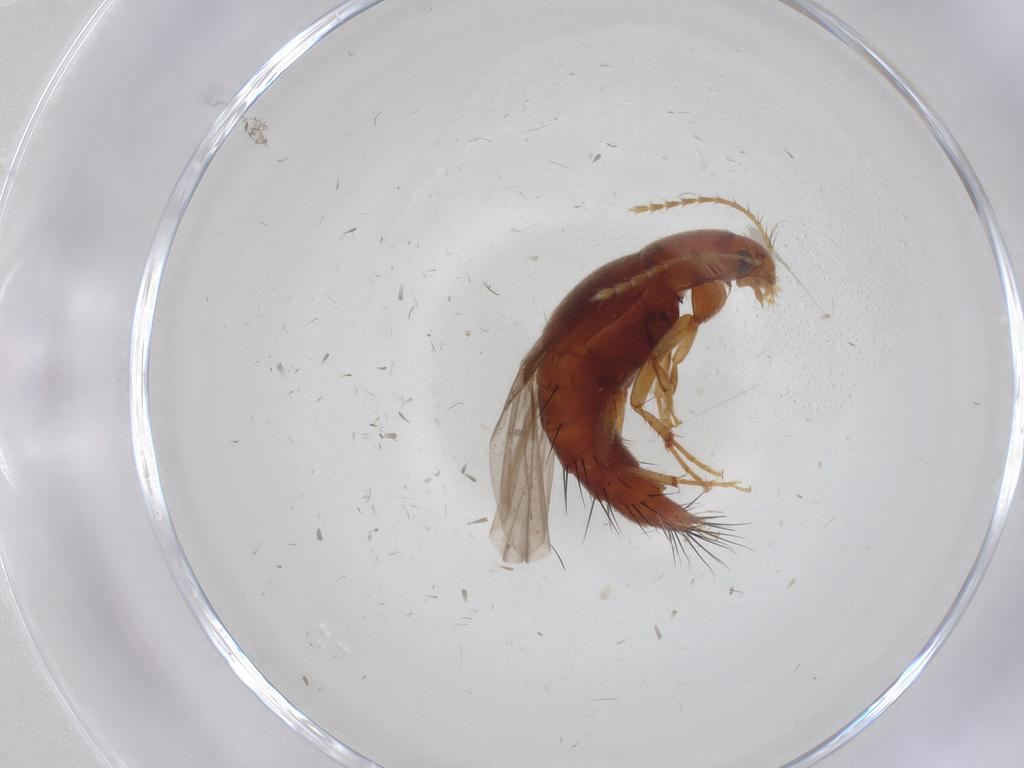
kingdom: Animalia
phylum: Arthropoda
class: Insecta
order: Coleoptera
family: Staphylinidae
